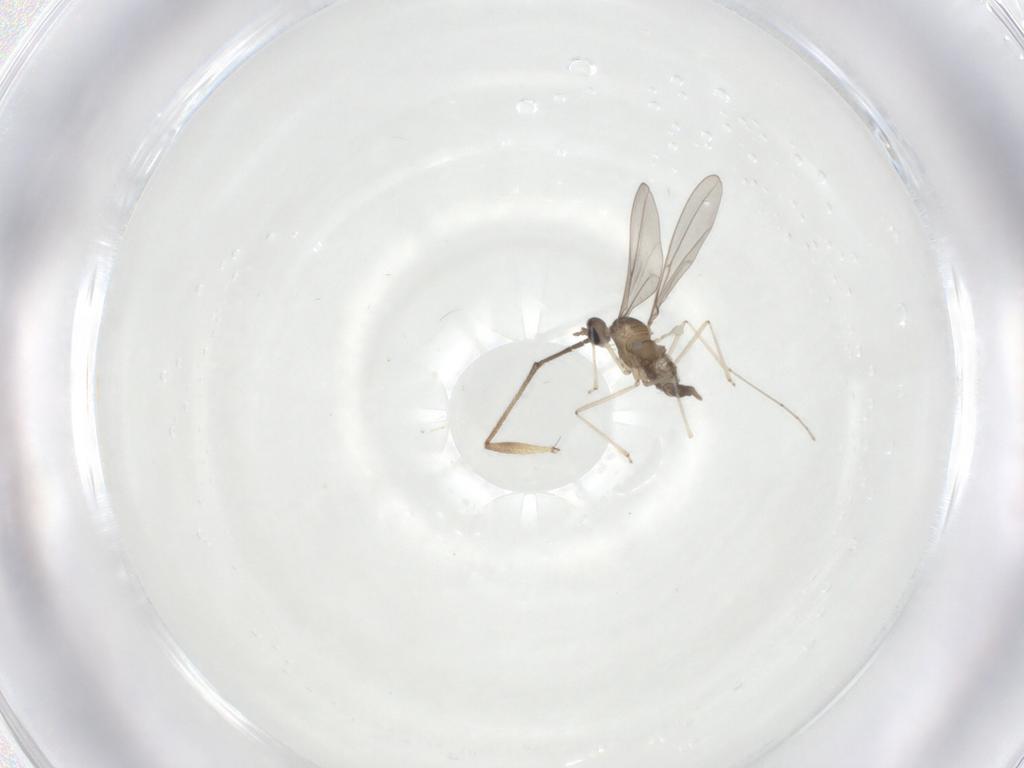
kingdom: Animalia
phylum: Arthropoda
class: Insecta
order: Diptera
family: Cecidomyiidae
